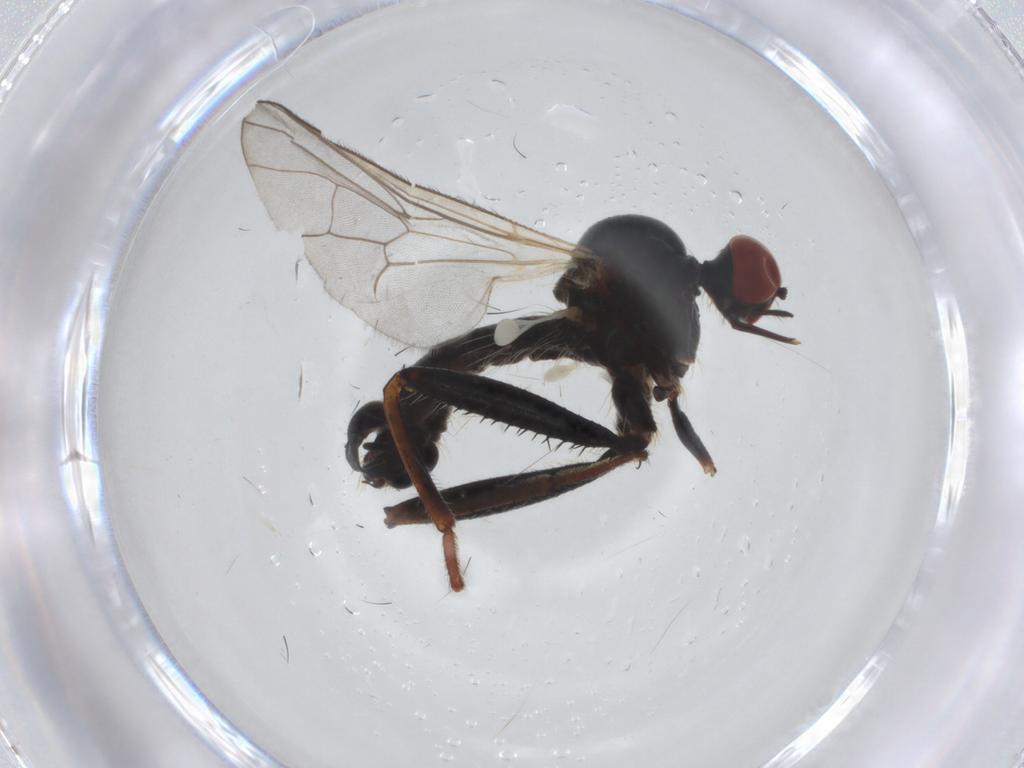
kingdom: Animalia
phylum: Arthropoda
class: Insecta
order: Diptera
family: Cecidomyiidae
